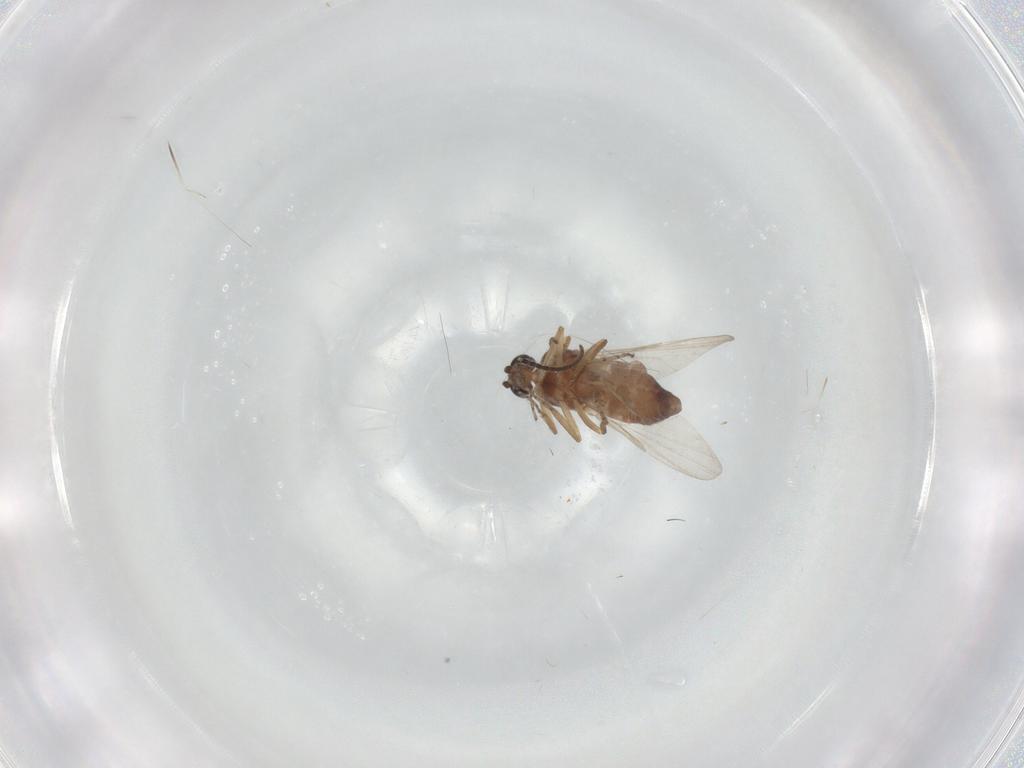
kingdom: Animalia
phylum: Arthropoda
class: Insecta
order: Diptera
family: Ceratopogonidae
